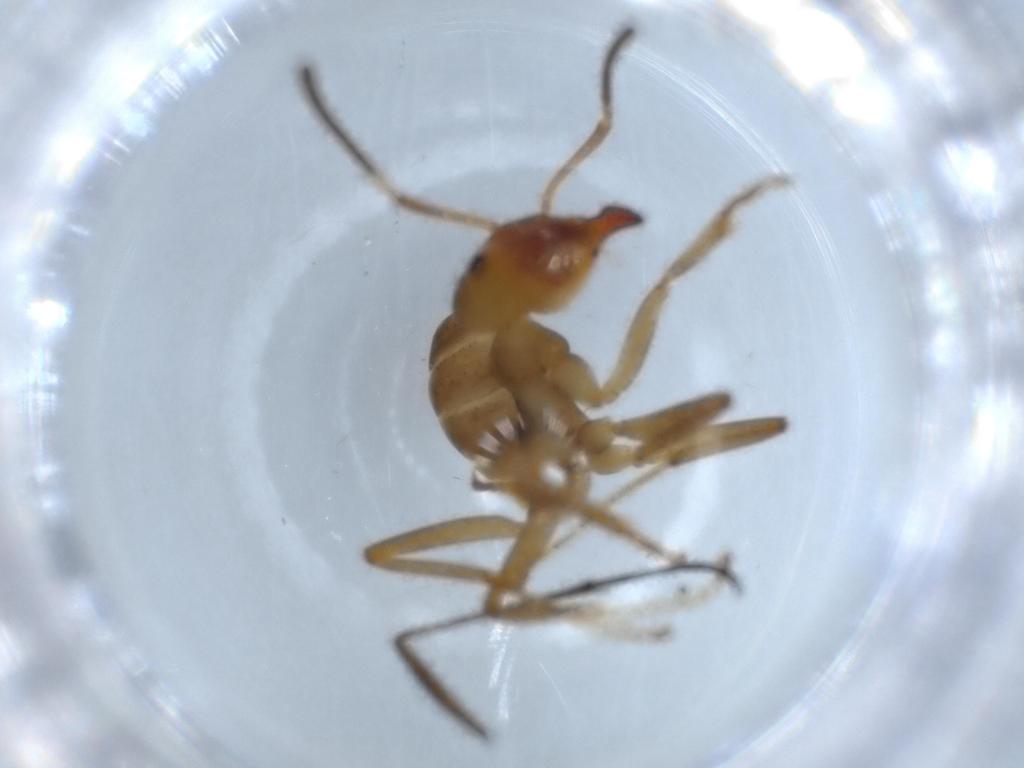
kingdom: Animalia
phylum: Arthropoda
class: Insecta
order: Hymenoptera
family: Formicidae
